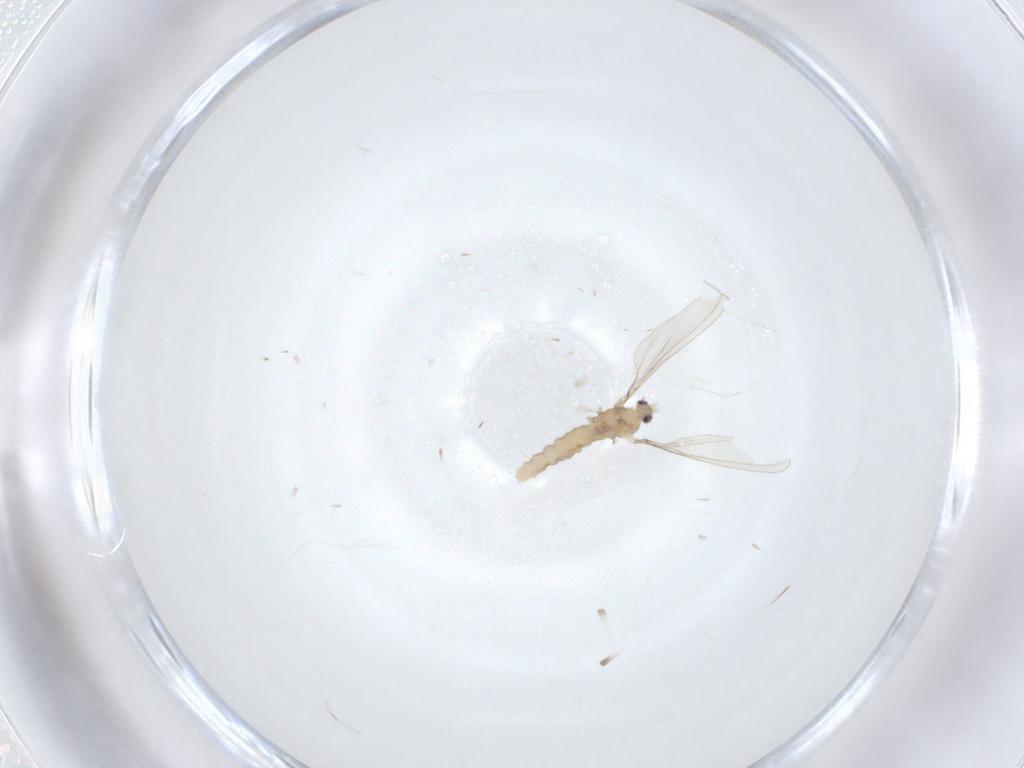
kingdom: Animalia
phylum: Arthropoda
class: Insecta
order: Diptera
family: Cecidomyiidae
